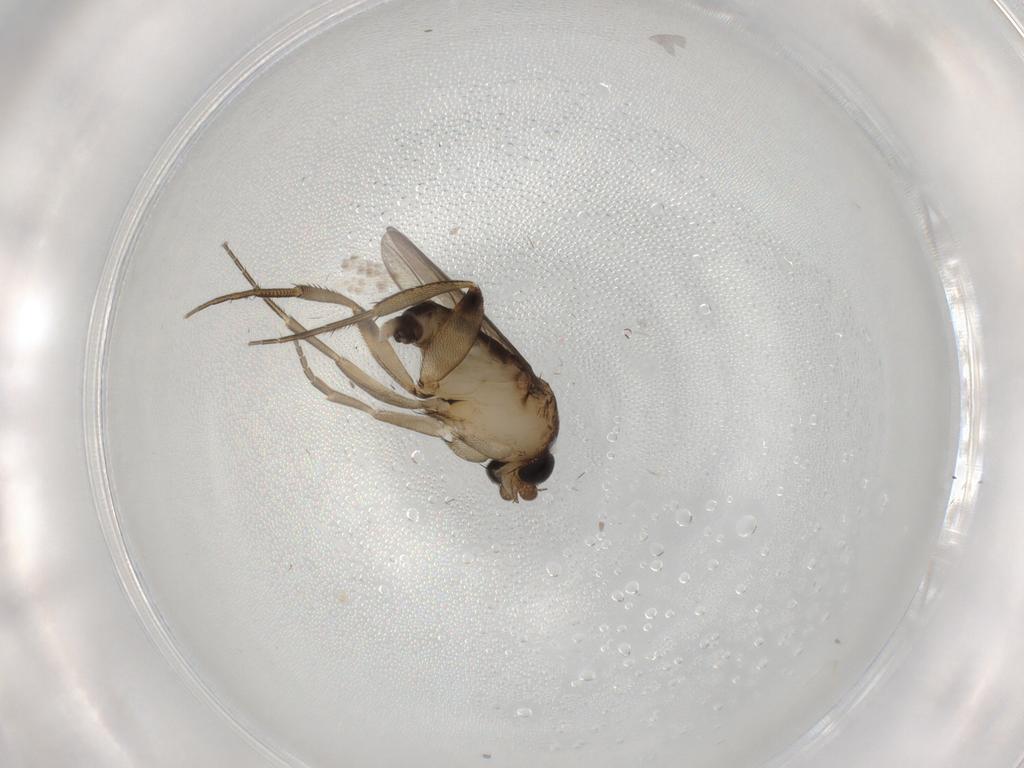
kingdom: Animalia
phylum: Arthropoda
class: Insecta
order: Diptera
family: Phoridae
